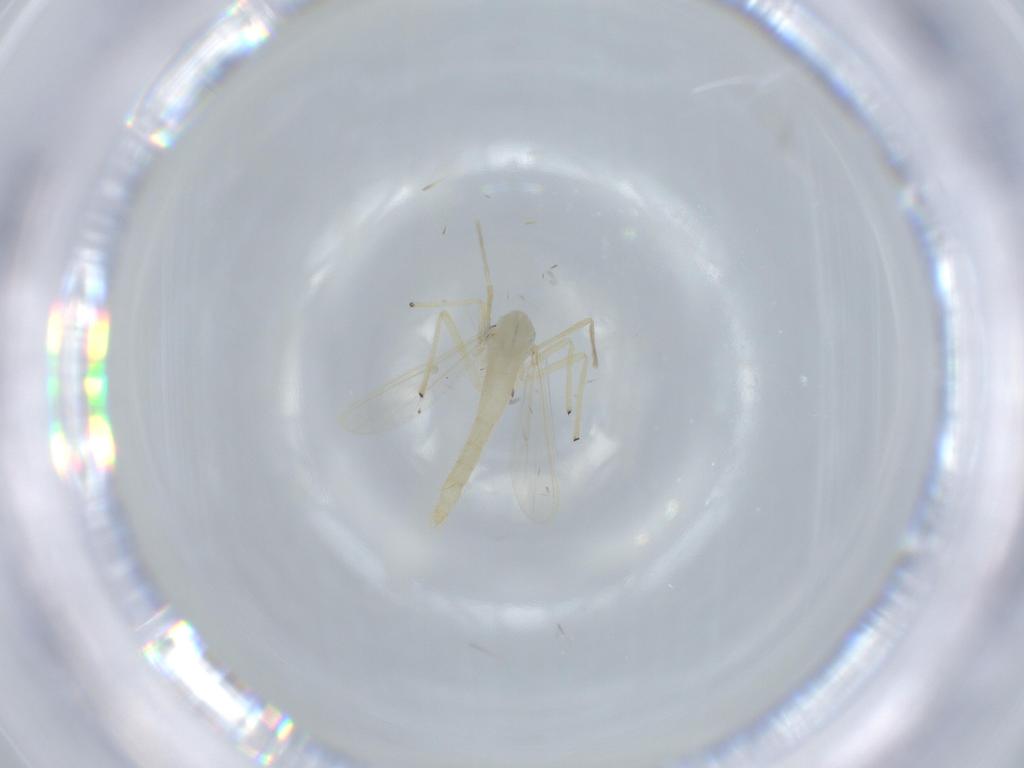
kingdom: Animalia
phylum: Arthropoda
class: Insecta
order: Diptera
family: Chironomidae
